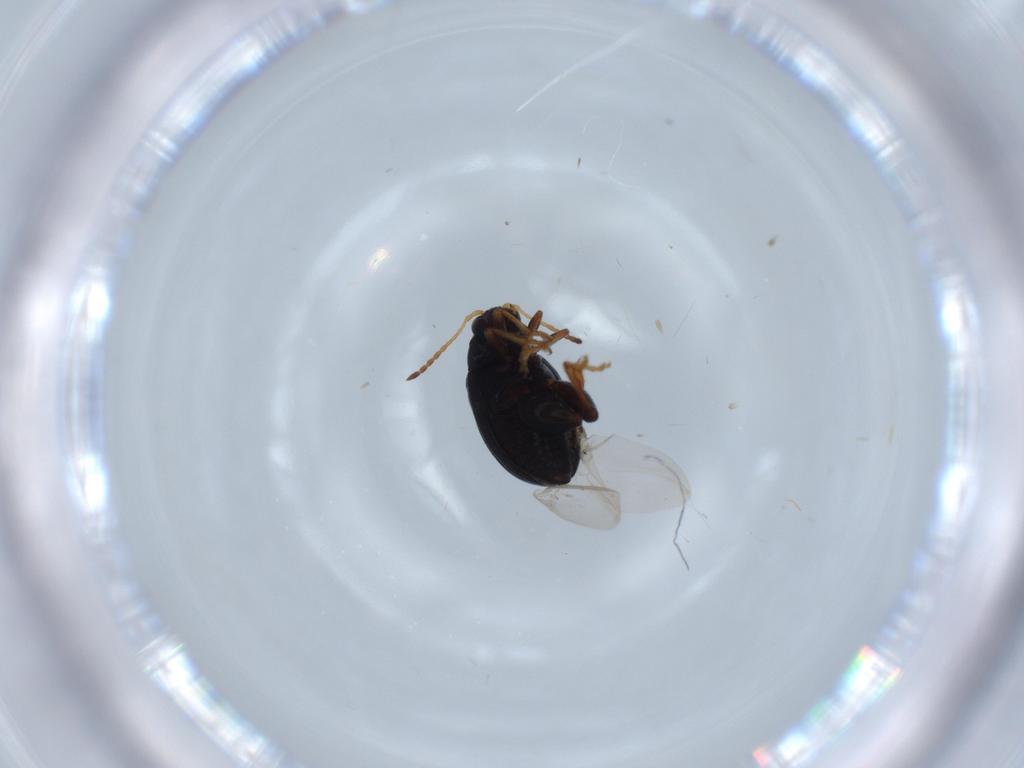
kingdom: Animalia
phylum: Arthropoda
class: Insecta
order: Coleoptera
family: Chrysomelidae
